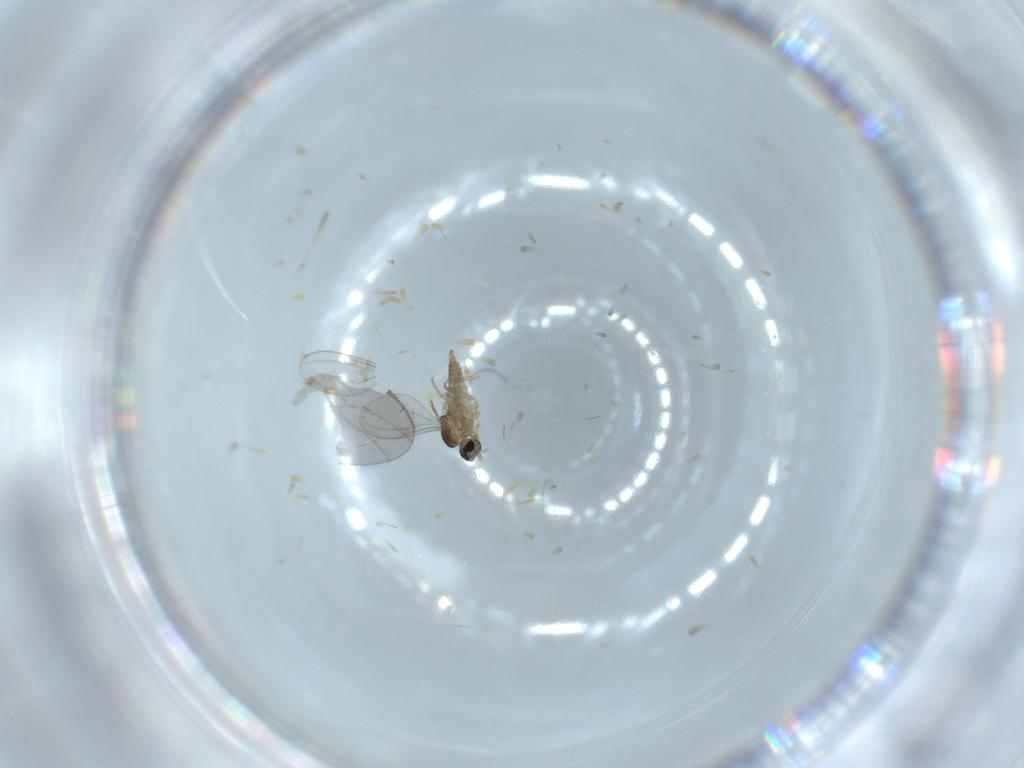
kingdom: Animalia
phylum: Arthropoda
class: Insecta
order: Diptera
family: Cecidomyiidae
